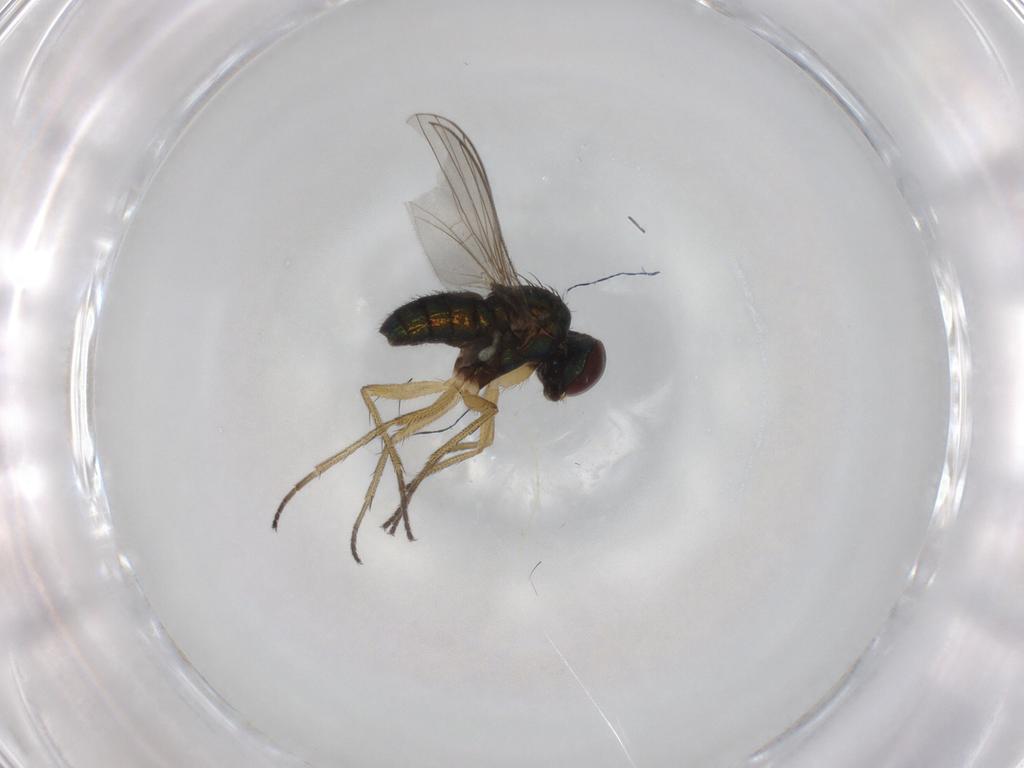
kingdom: Animalia
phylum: Arthropoda
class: Insecta
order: Diptera
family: Dolichopodidae
